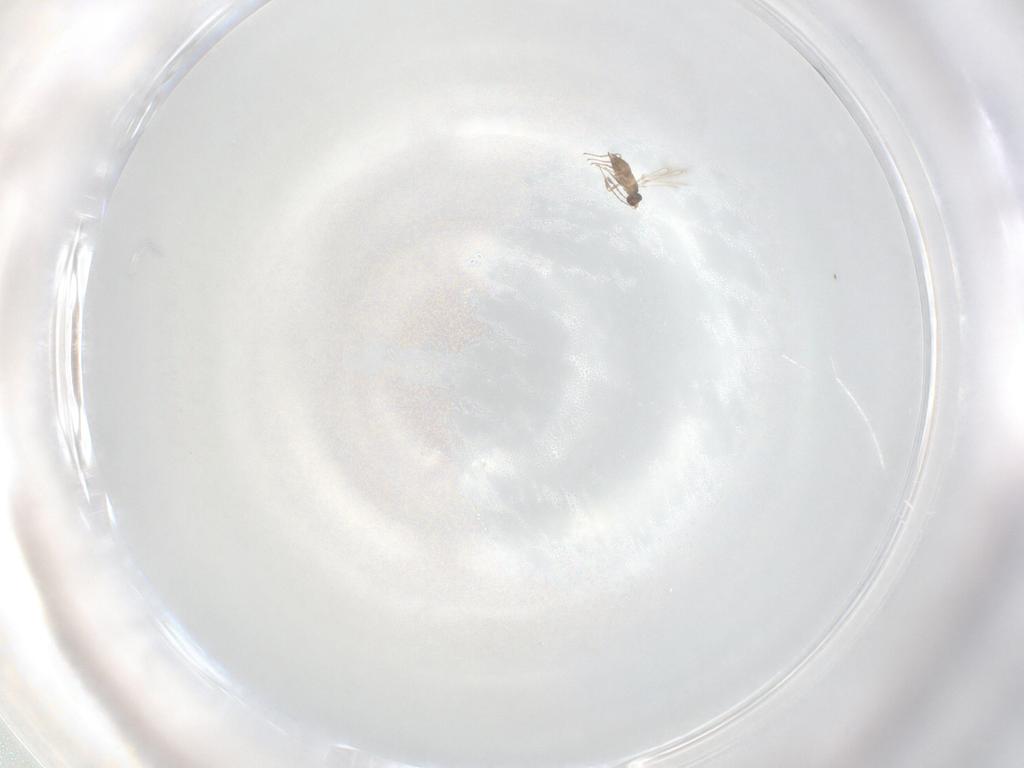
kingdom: Animalia
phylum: Arthropoda
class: Insecta
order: Hymenoptera
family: Mymaridae
